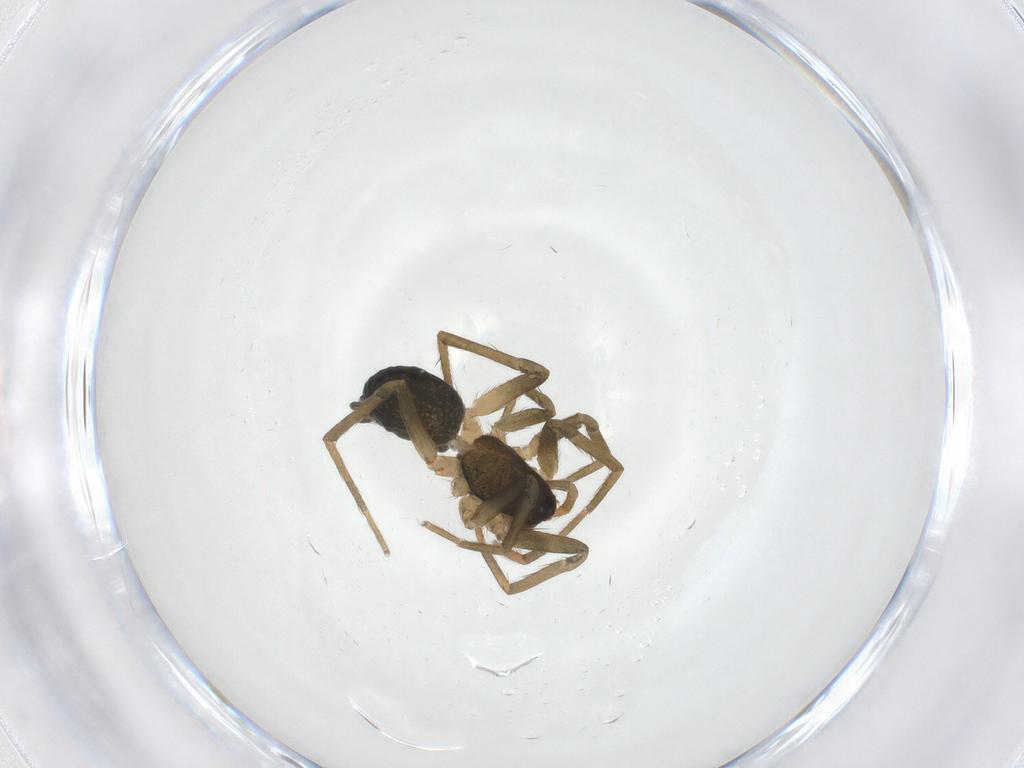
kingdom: Animalia
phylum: Arthropoda
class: Arachnida
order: Araneae
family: Lycosidae
